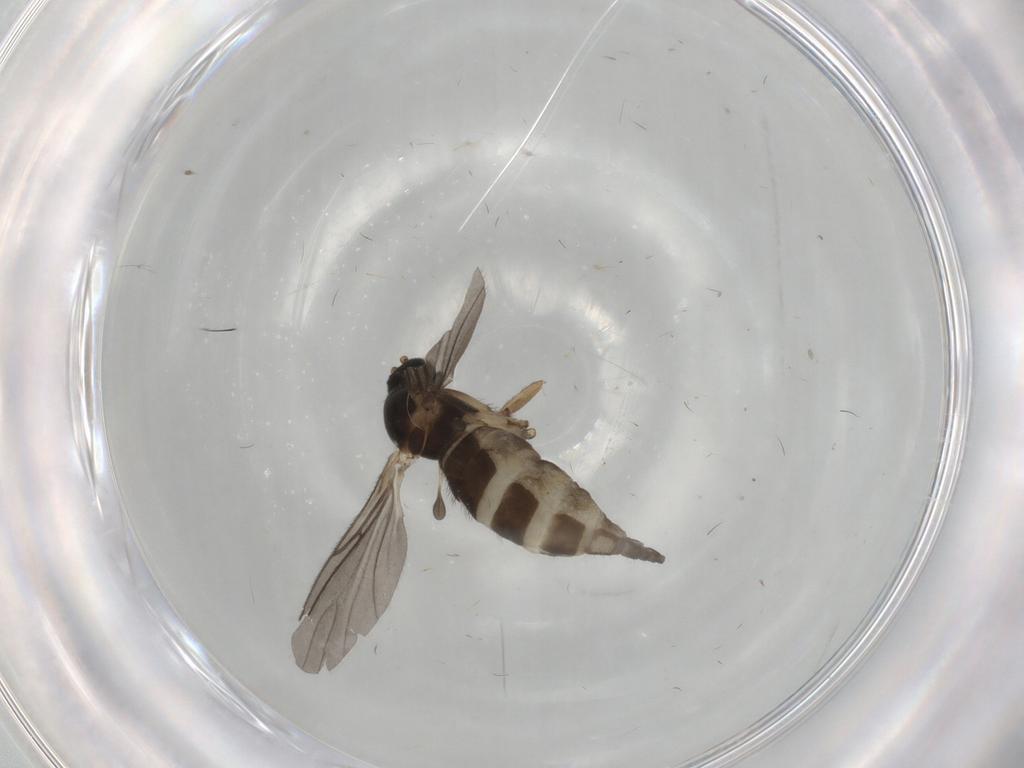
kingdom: Animalia
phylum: Arthropoda
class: Insecta
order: Diptera
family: Sciaridae
